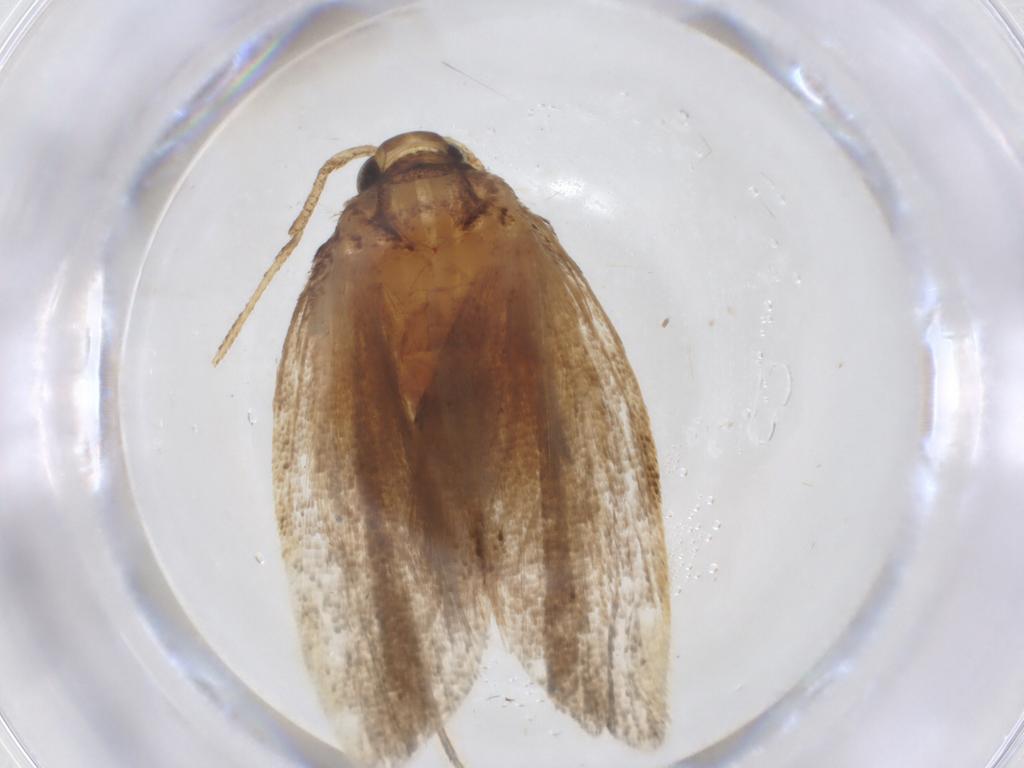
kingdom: Animalia
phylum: Arthropoda
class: Insecta
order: Lepidoptera
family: Lecithoceridae
